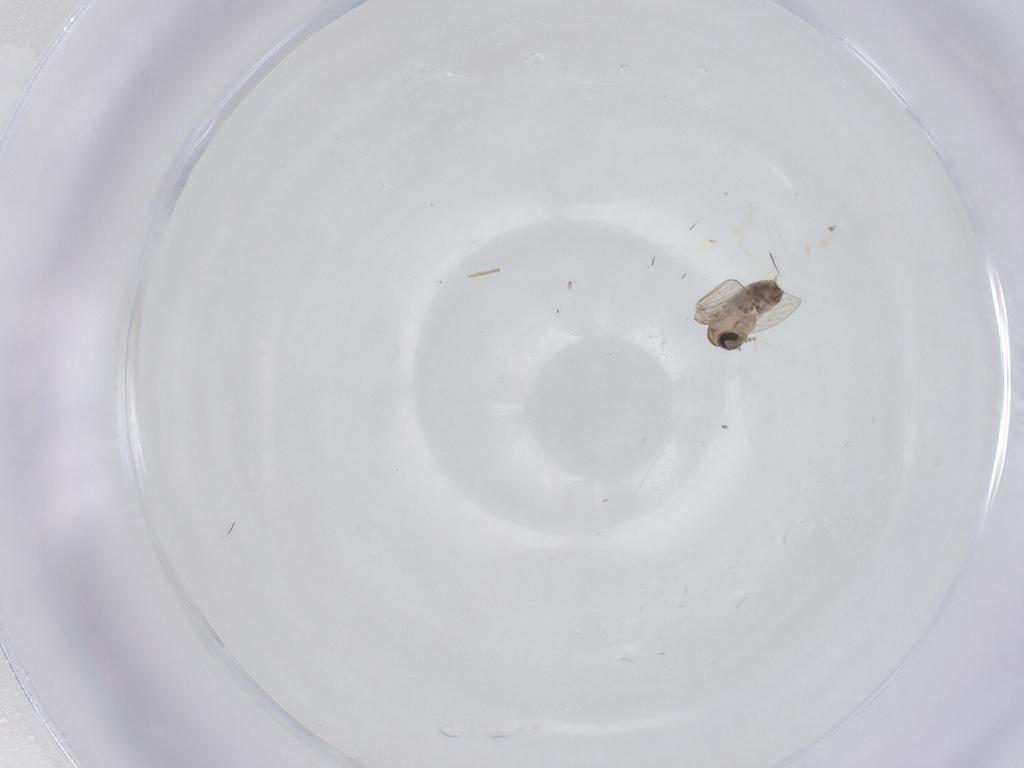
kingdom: Animalia
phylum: Arthropoda
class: Insecta
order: Diptera
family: Psychodidae
